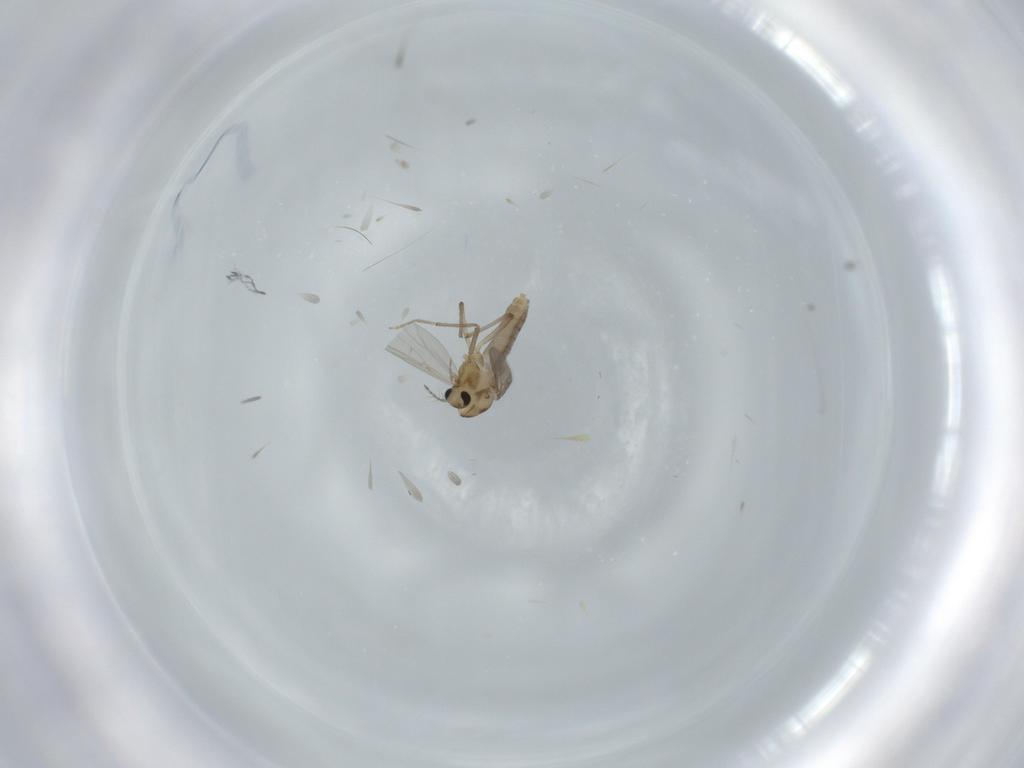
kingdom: Animalia
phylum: Arthropoda
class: Insecta
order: Diptera
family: Chironomidae
